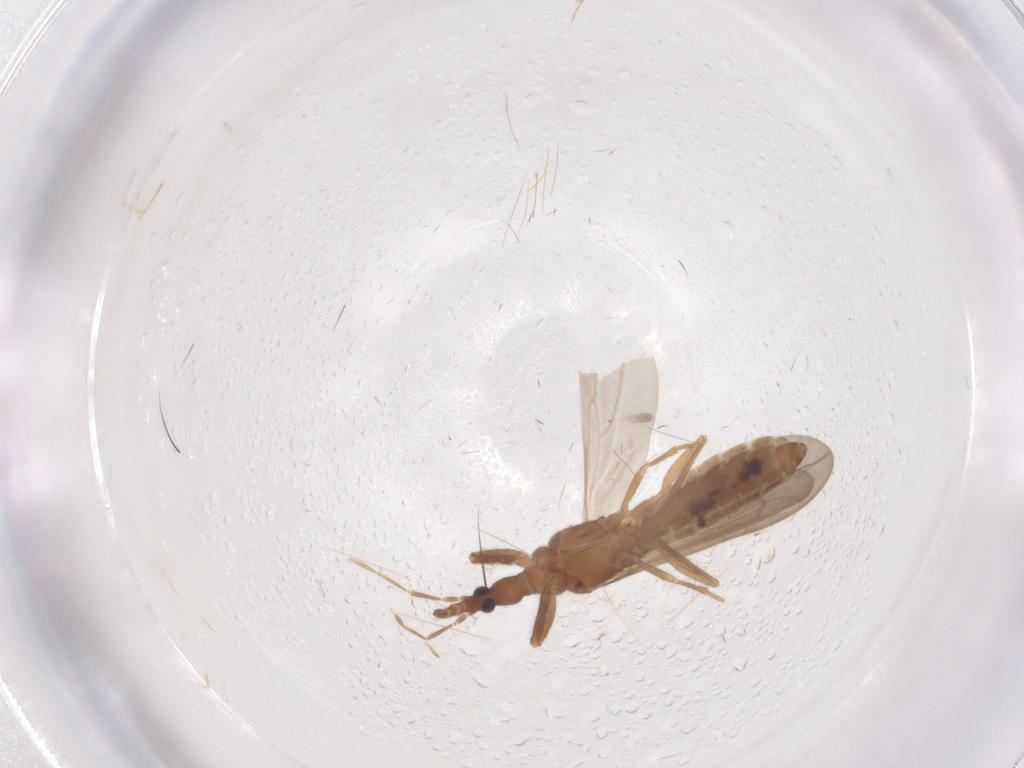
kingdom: Animalia
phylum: Arthropoda
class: Insecta
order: Hemiptera
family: Enicocephalidae
